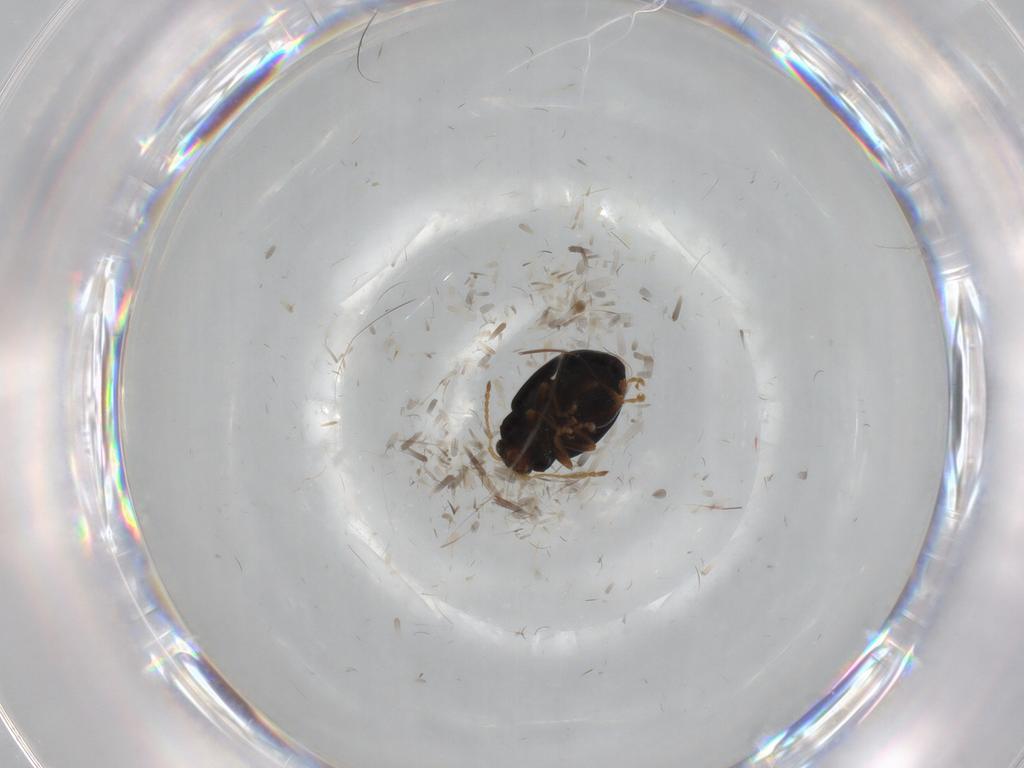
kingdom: Animalia
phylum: Arthropoda
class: Insecta
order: Coleoptera
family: Chrysomelidae
